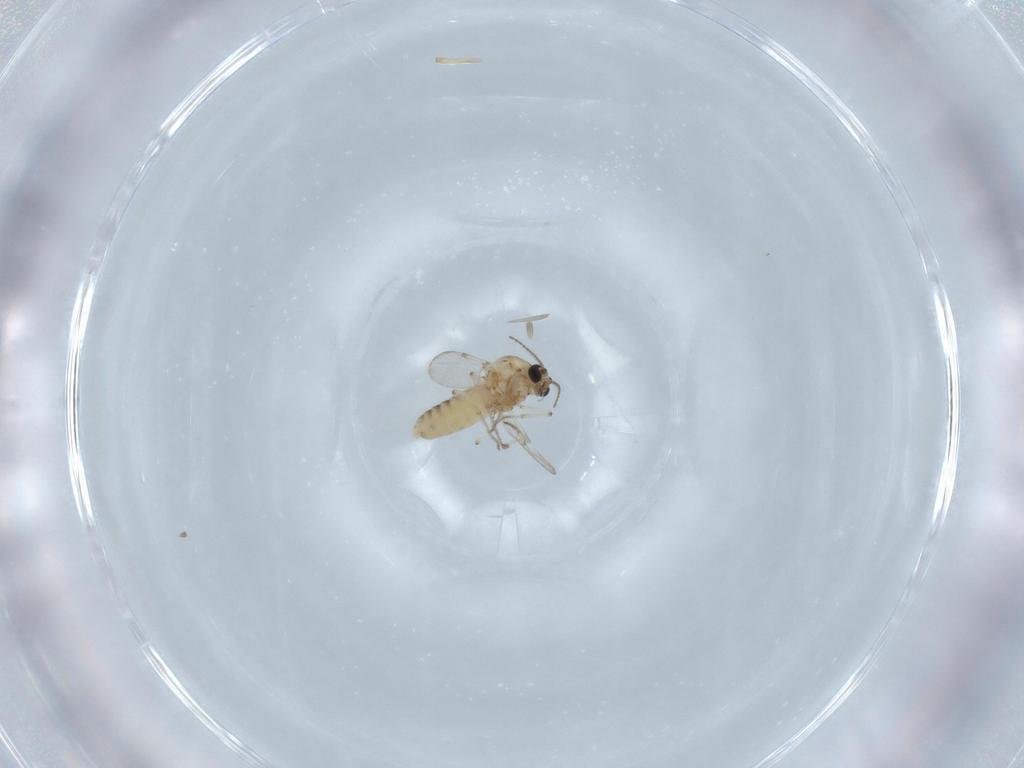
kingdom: Animalia
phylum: Arthropoda
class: Insecta
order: Diptera
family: Ceratopogonidae
